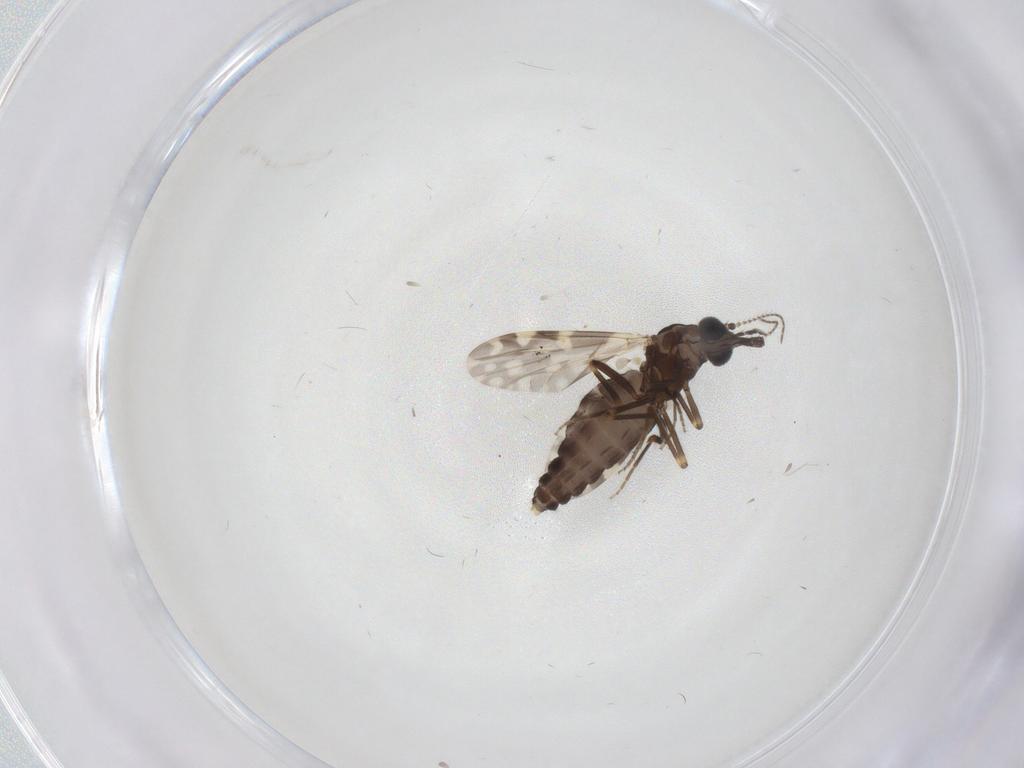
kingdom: Animalia
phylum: Arthropoda
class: Insecta
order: Diptera
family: Ceratopogonidae
